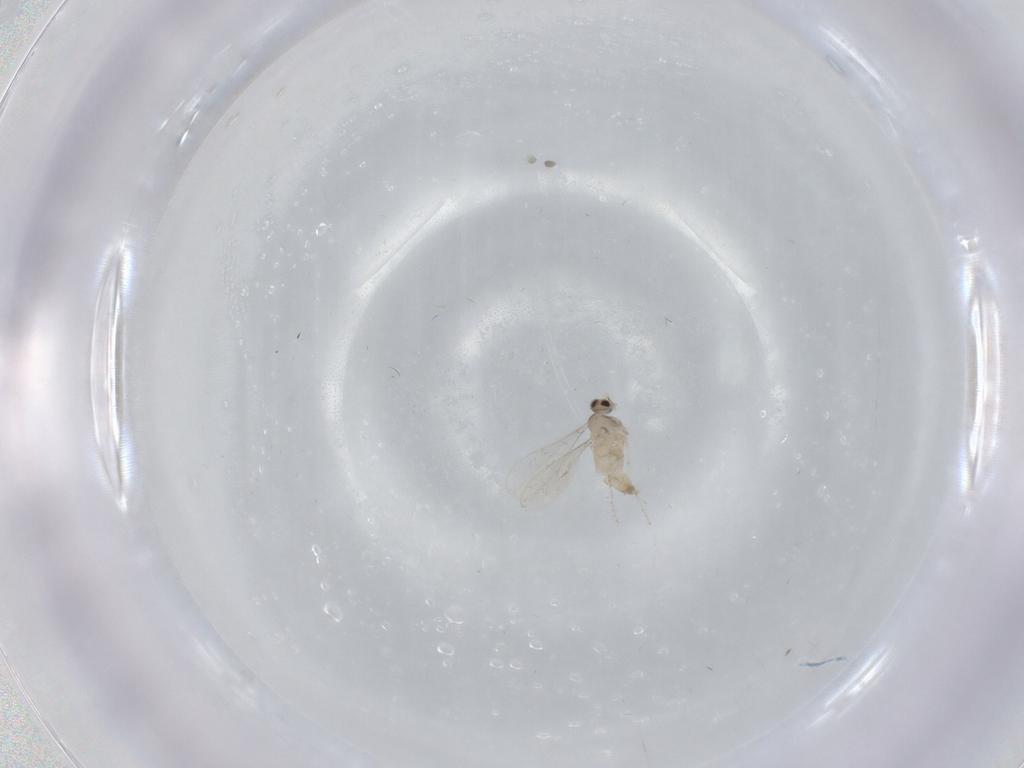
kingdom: Animalia
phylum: Arthropoda
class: Insecta
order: Diptera
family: Cecidomyiidae
